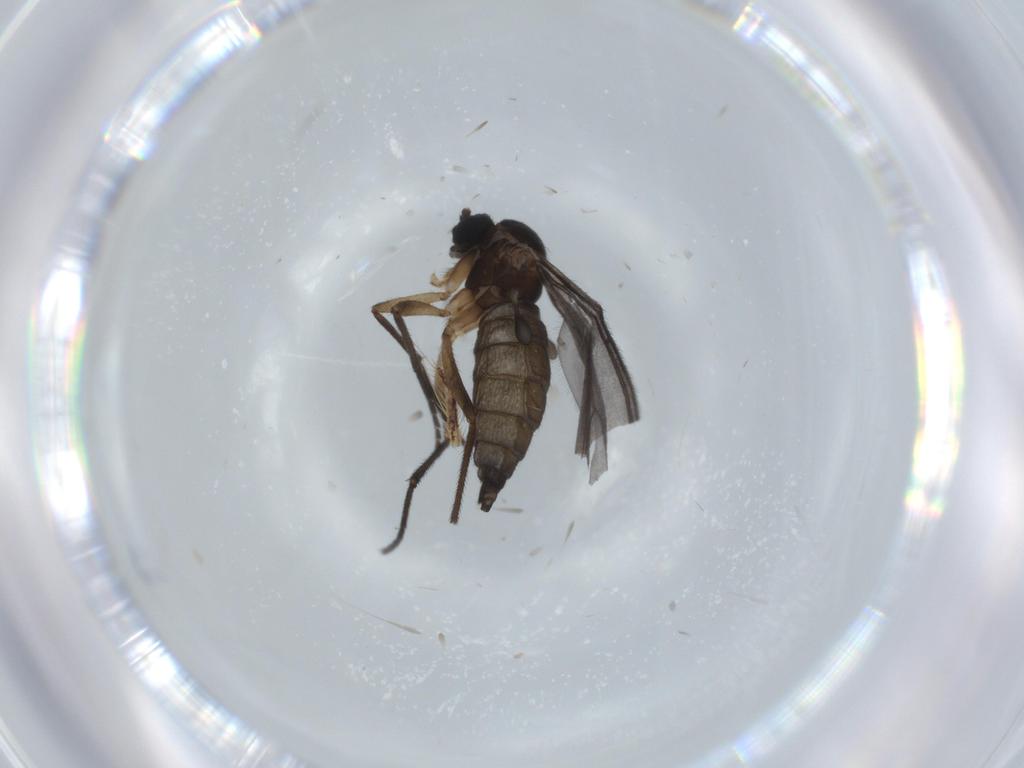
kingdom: Animalia
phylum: Arthropoda
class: Insecta
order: Diptera
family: Sciaridae
